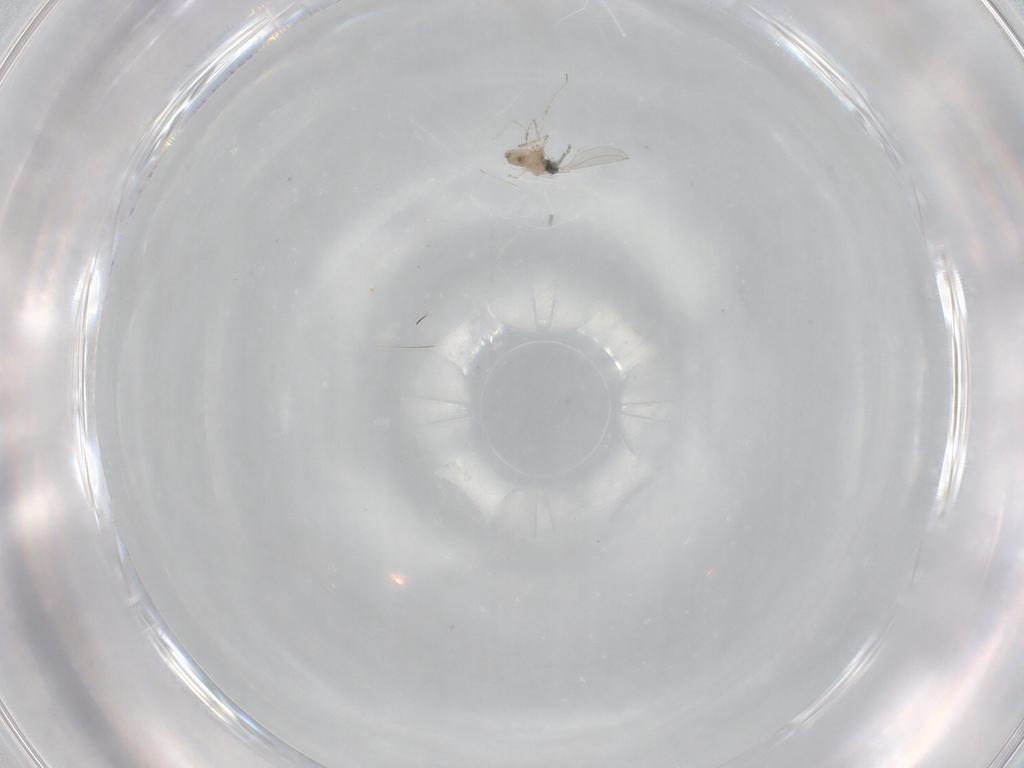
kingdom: Animalia
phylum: Arthropoda
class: Insecta
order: Diptera
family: Cecidomyiidae
